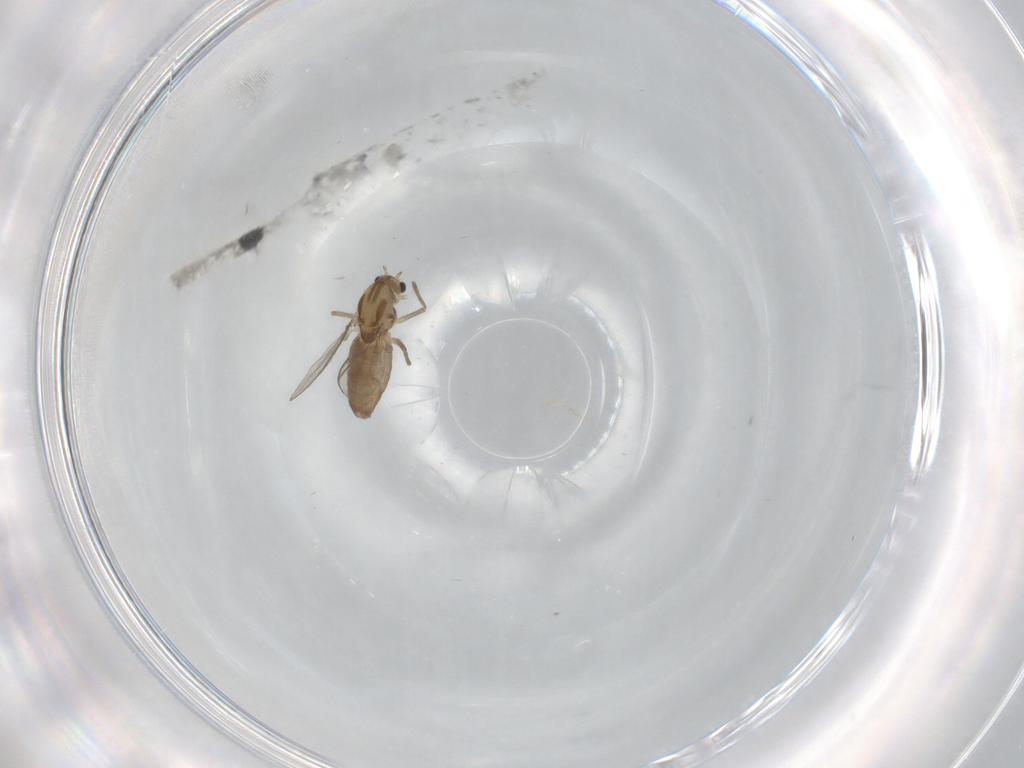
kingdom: Animalia
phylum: Arthropoda
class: Insecta
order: Diptera
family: Chironomidae
